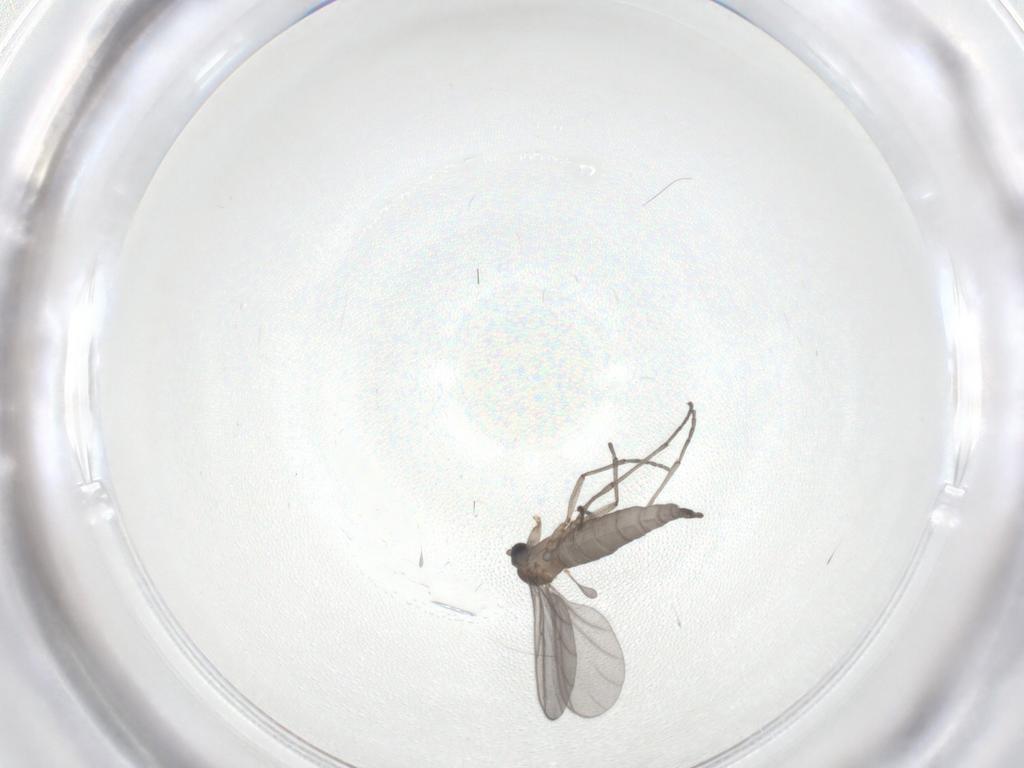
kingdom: Animalia
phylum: Arthropoda
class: Insecta
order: Diptera
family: Sciaridae
